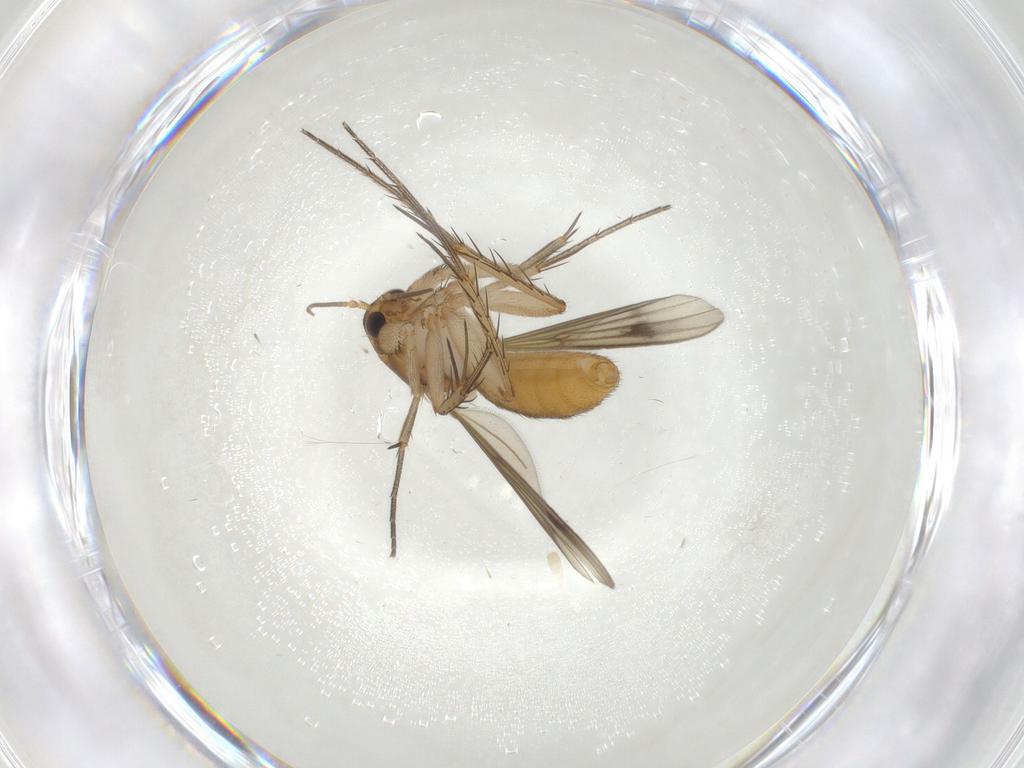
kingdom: Animalia
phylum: Arthropoda
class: Insecta
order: Diptera
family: Mycetophilidae
